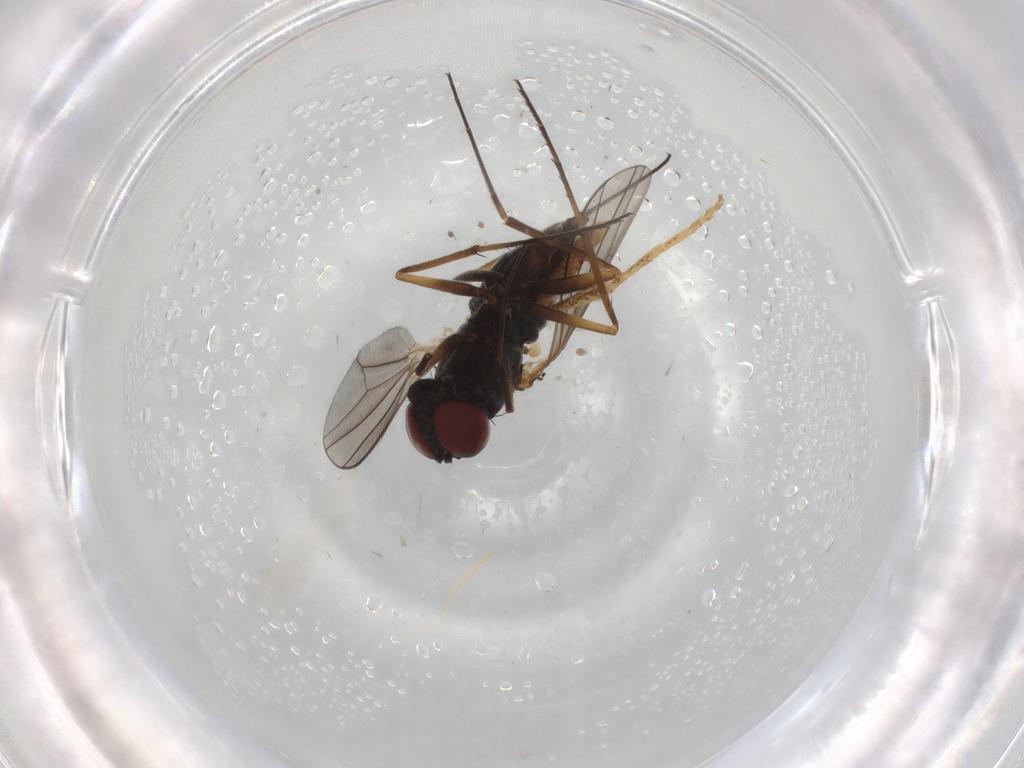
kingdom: Animalia
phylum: Arthropoda
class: Insecta
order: Diptera
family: Dolichopodidae
